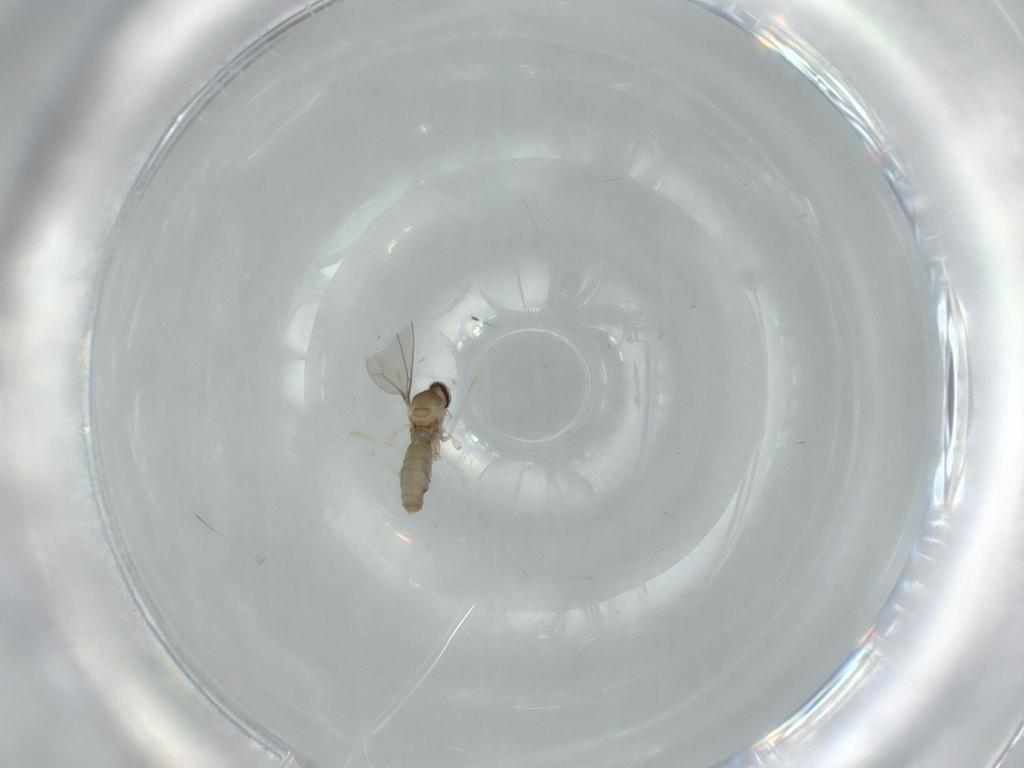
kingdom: Animalia
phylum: Arthropoda
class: Insecta
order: Diptera
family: Cecidomyiidae
